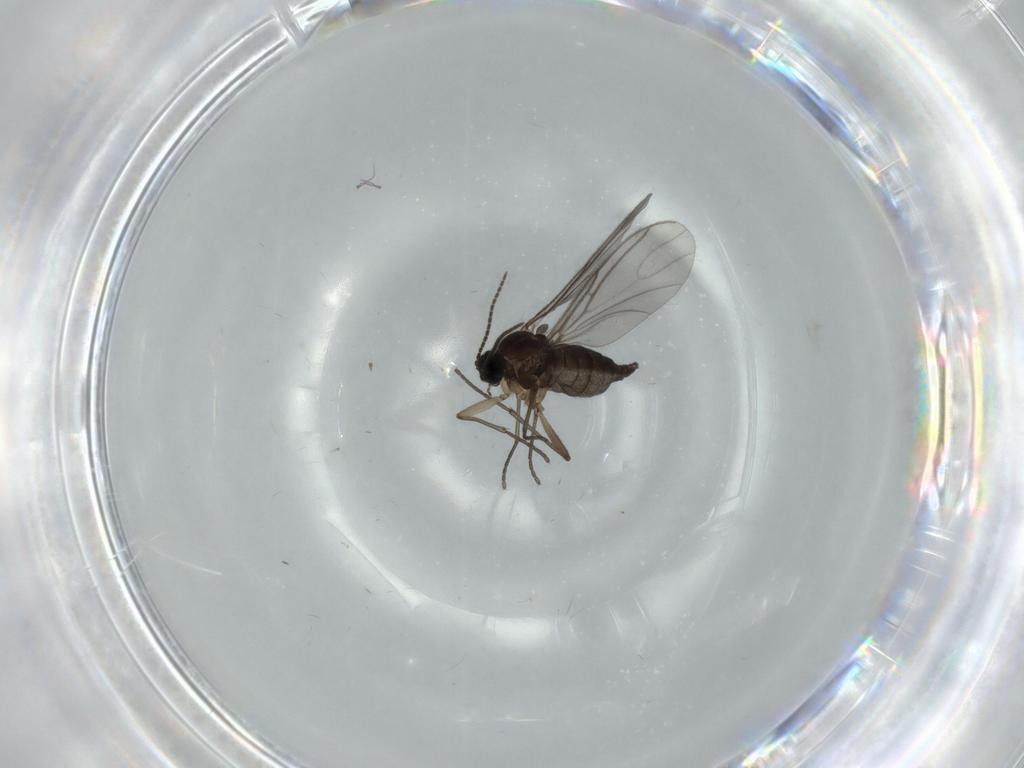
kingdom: Animalia
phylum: Arthropoda
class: Insecta
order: Diptera
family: Sciaridae
